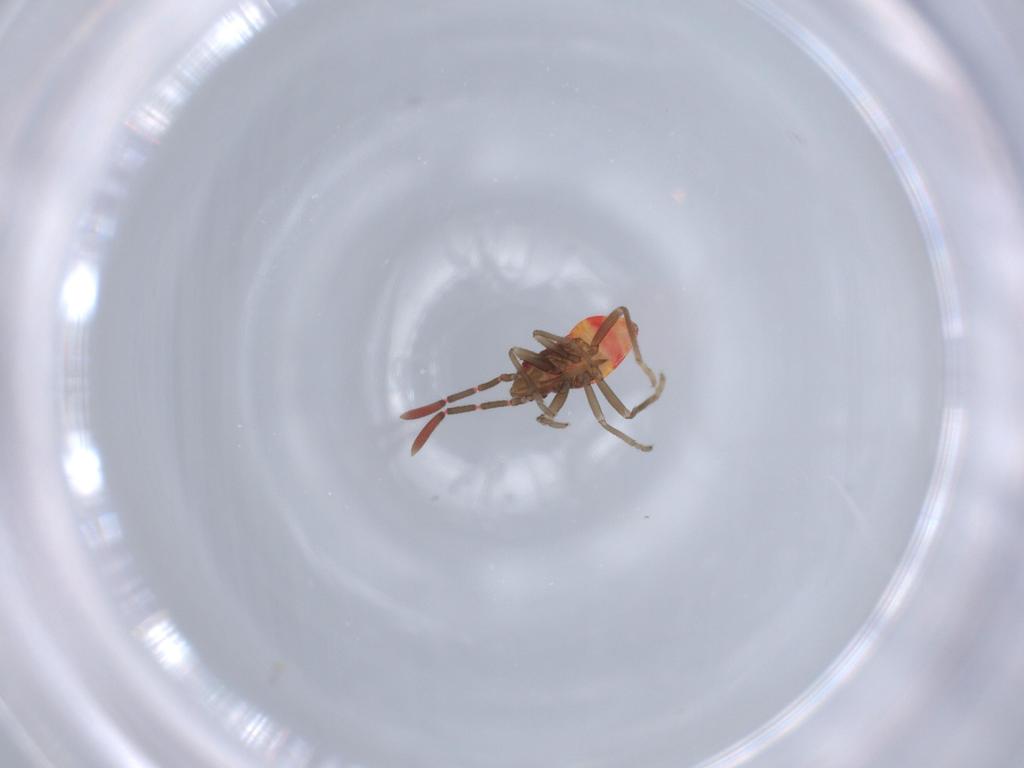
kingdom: Animalia
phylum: Arthropoda
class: Insecta
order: Hemiptera
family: Rhyparochromidae
